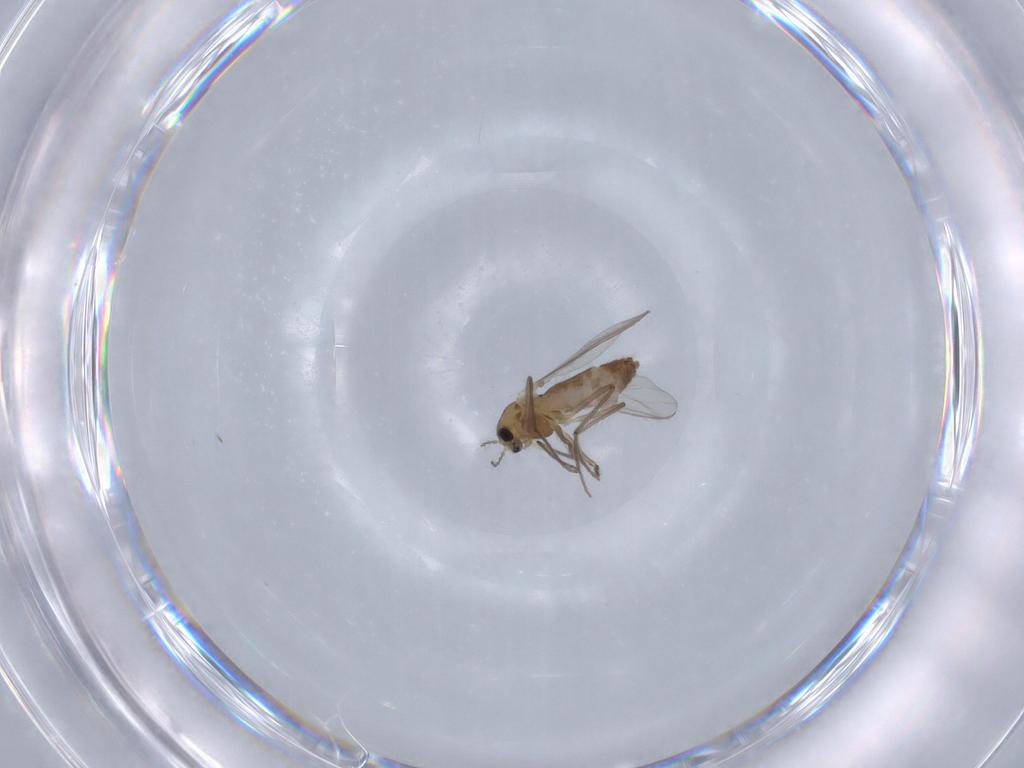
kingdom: Animalia
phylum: Arthropoda
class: Insecta
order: Diptera
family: Chironomidae
